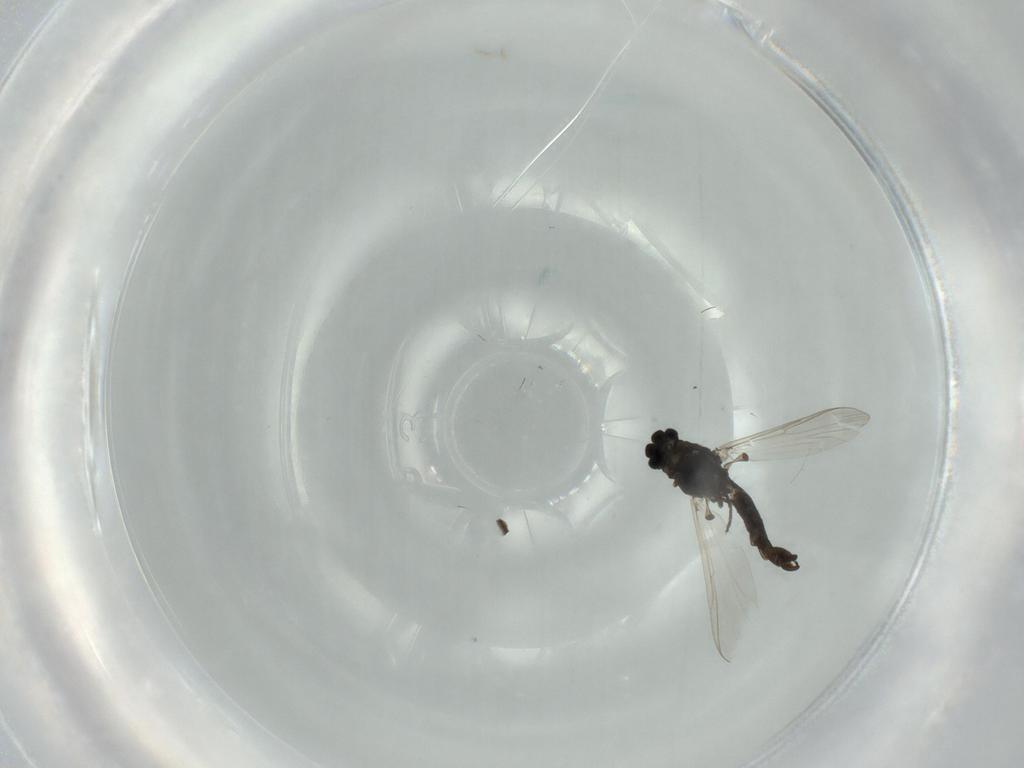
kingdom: Animalia
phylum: Arthropoda
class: Insecta
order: Diptera
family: Chironomidae
